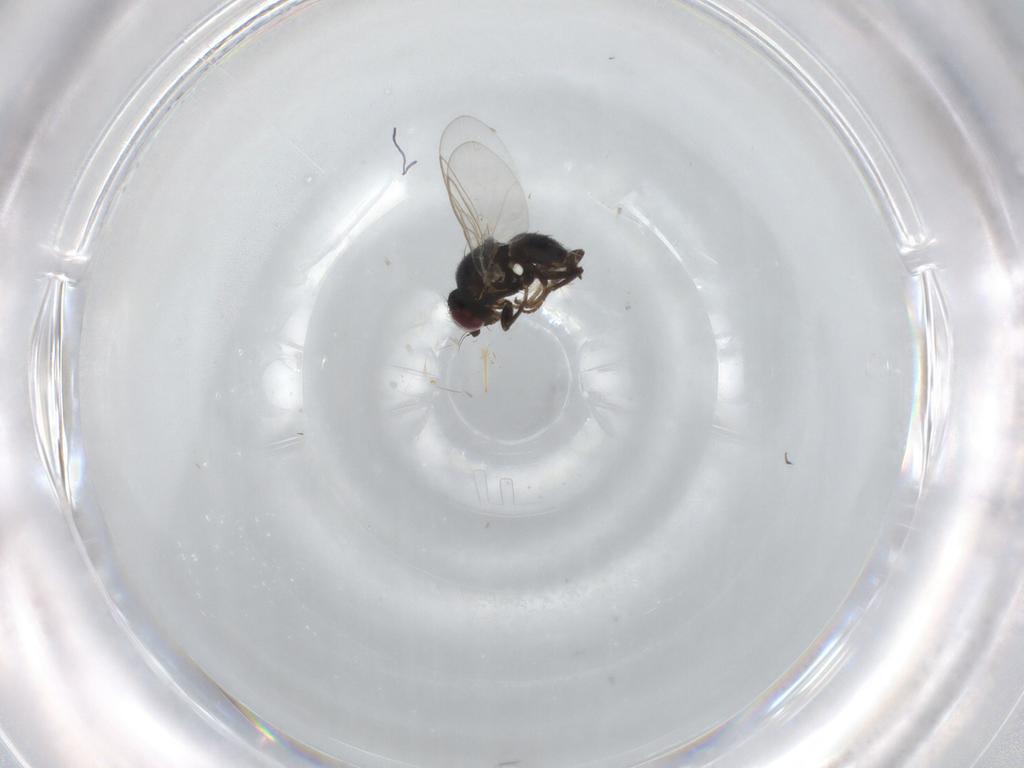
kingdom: Animalia
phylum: Arthropoda
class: Insecta
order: Diptera
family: Agromyzidae
